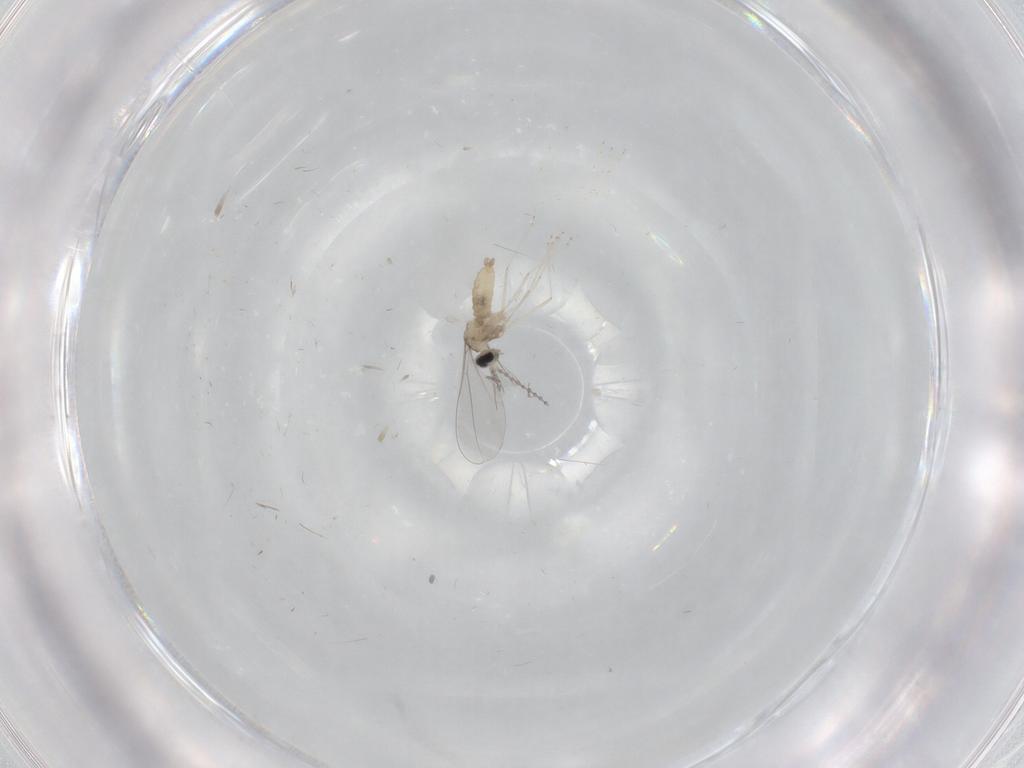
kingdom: Animalia
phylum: Arthropoda
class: Insecta
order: Diptera
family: Cecidomyiidae
